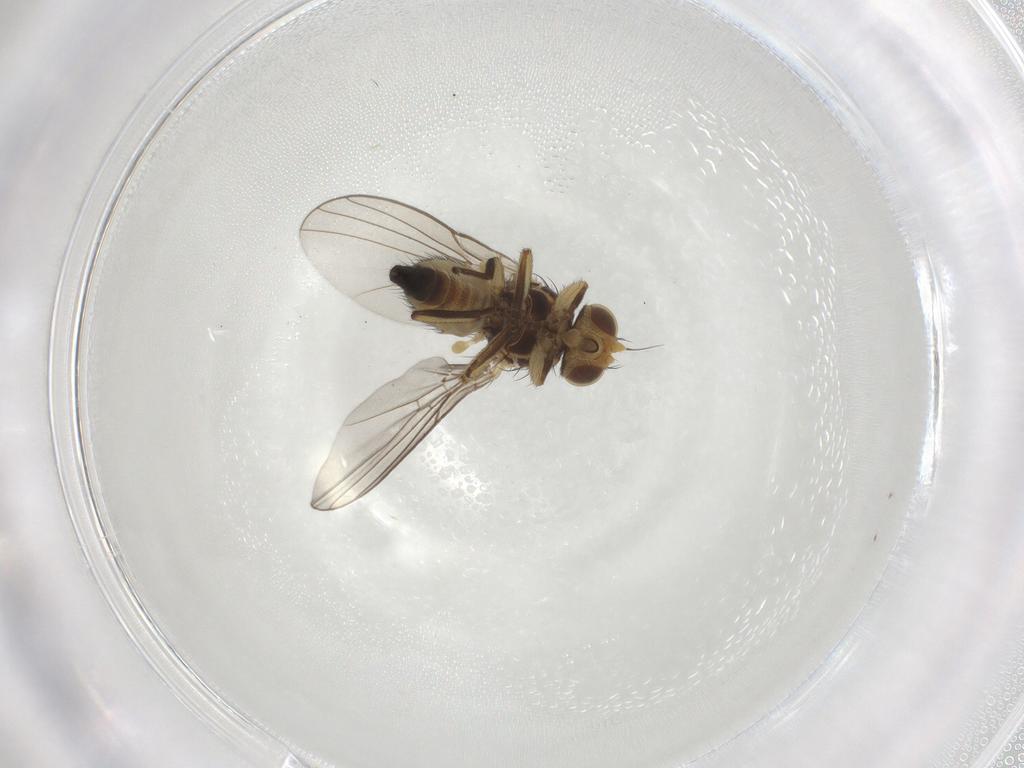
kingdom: Animalia
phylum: Arthropoda
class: Insecta
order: Diptera
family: Agromyzidae
